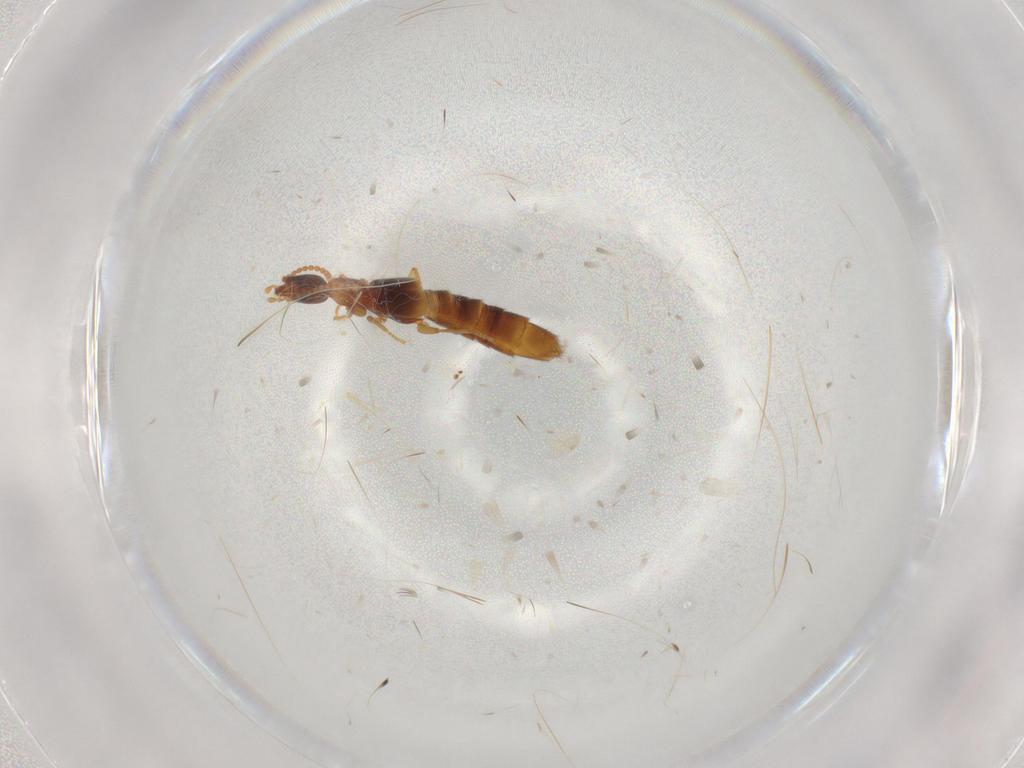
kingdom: Animalia
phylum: Arthropoda
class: Insecta
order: Coleoptera
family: Staphylinidae
